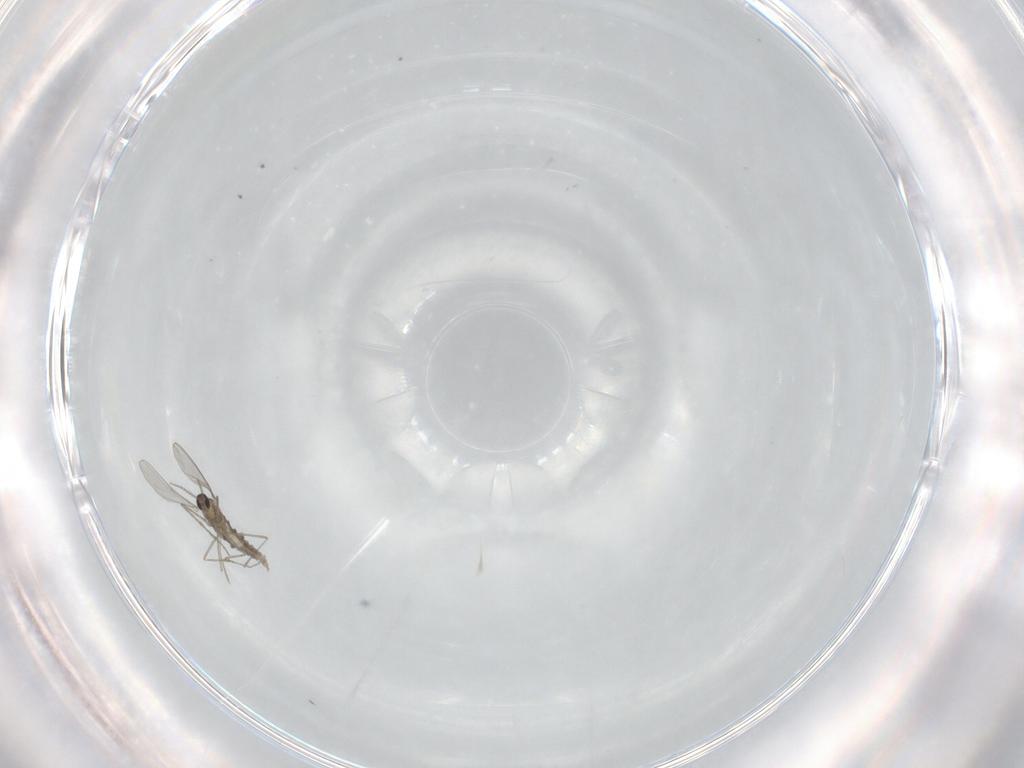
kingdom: Animalia
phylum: Arthropoda
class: Insecta
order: Diptera
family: Cecidomyiidae
